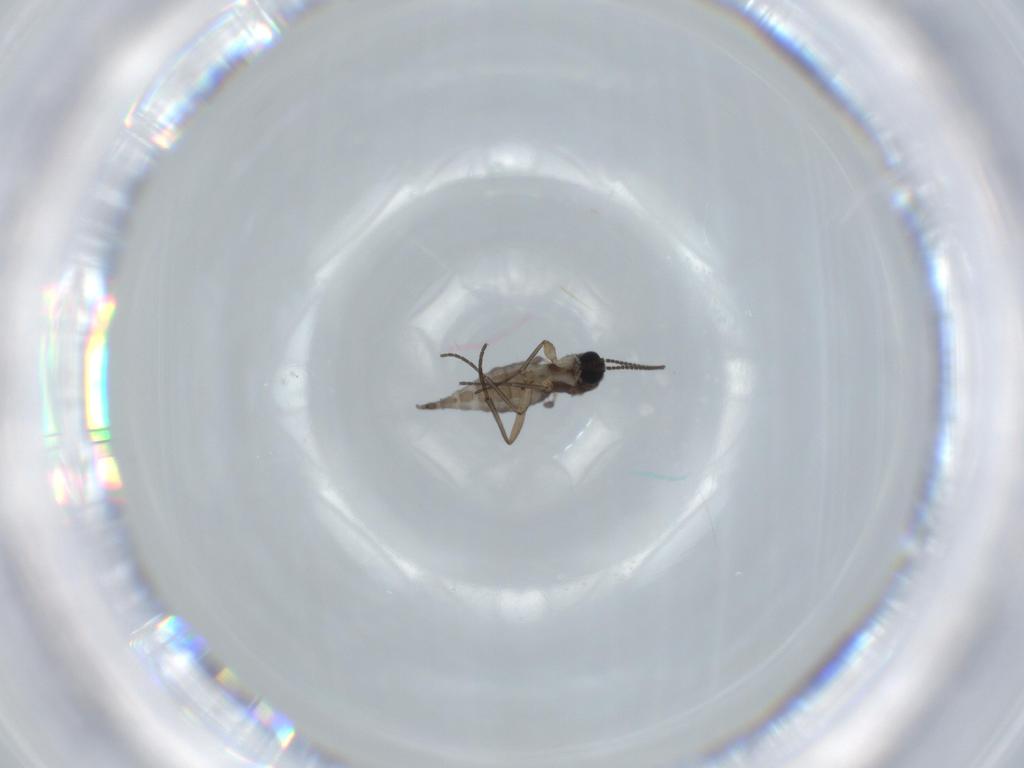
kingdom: Animalia
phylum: Arthropoda
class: Insecta
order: Diptera
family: Sciaridae
